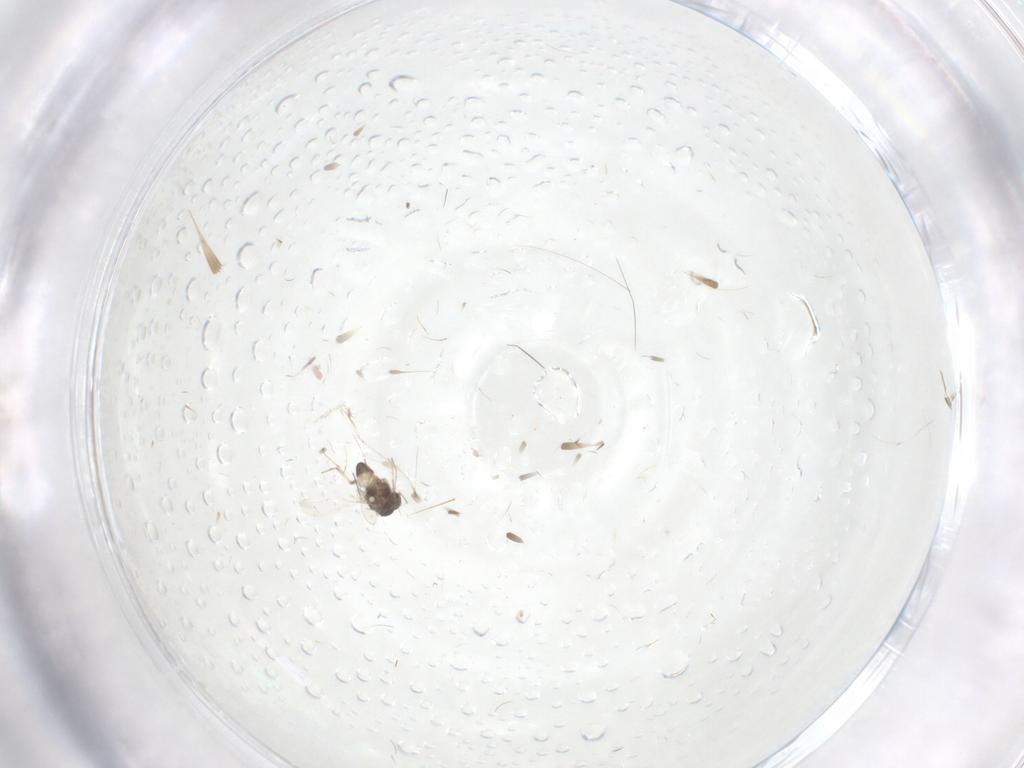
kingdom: Animalia
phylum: Arthropoda
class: Insecta
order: Diptera
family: Ceratopogonidae
